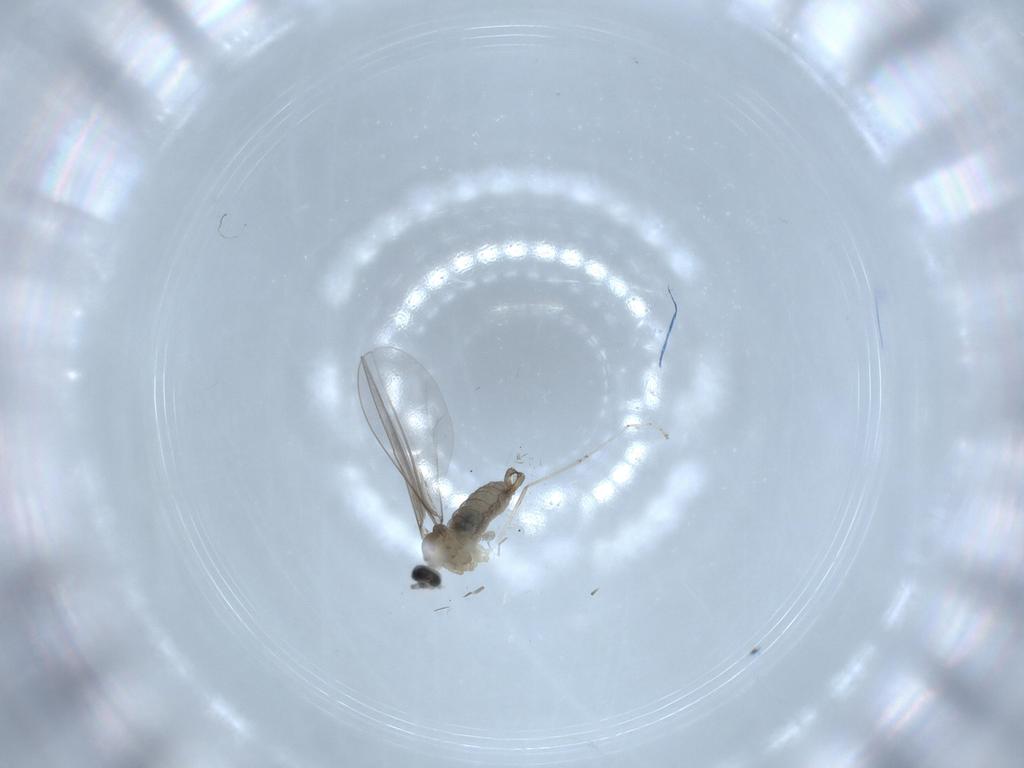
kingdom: Animalia
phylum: Arthropoda
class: Insecta
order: Diptera
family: Cecidomyiidae
